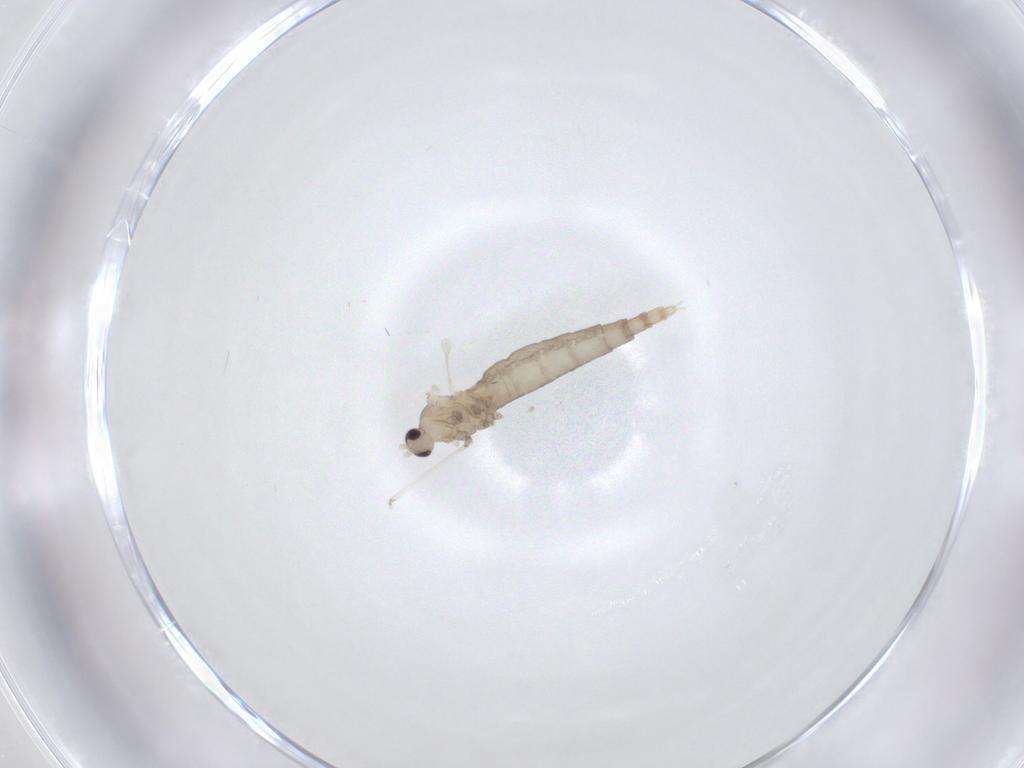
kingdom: Animalia
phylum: Arthropoda
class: Insecta
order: Diptera
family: Cecidomyiidae
